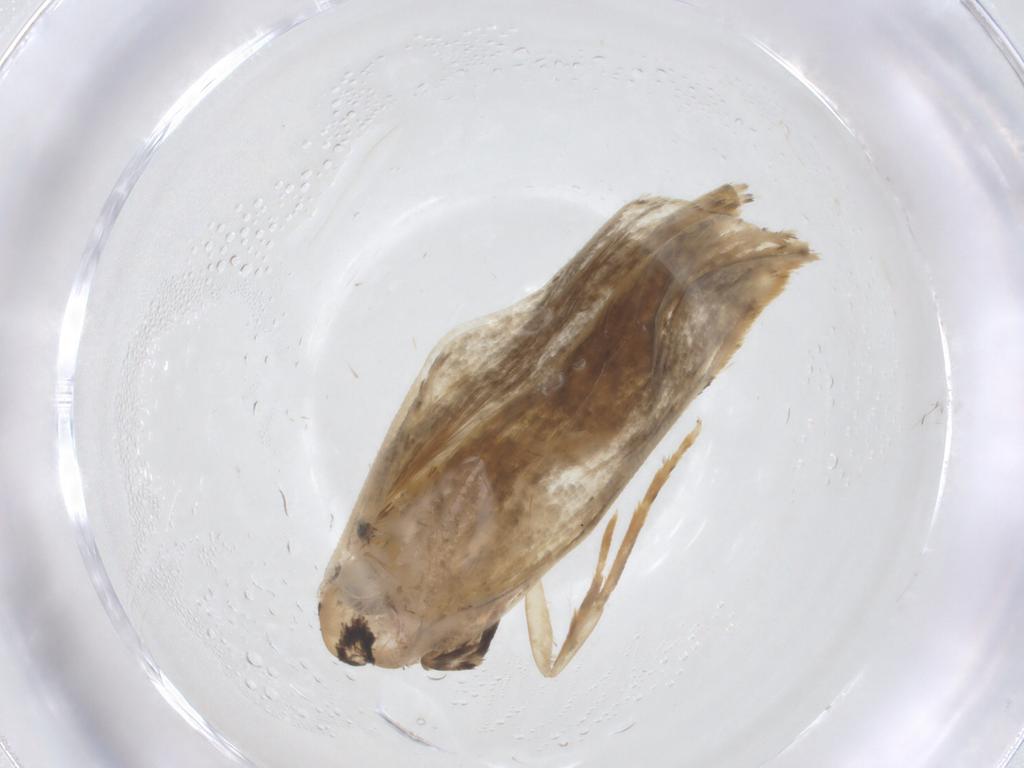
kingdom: Animalia
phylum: Arthropoda
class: Insecta
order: Lepidoptera
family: Psychidae
